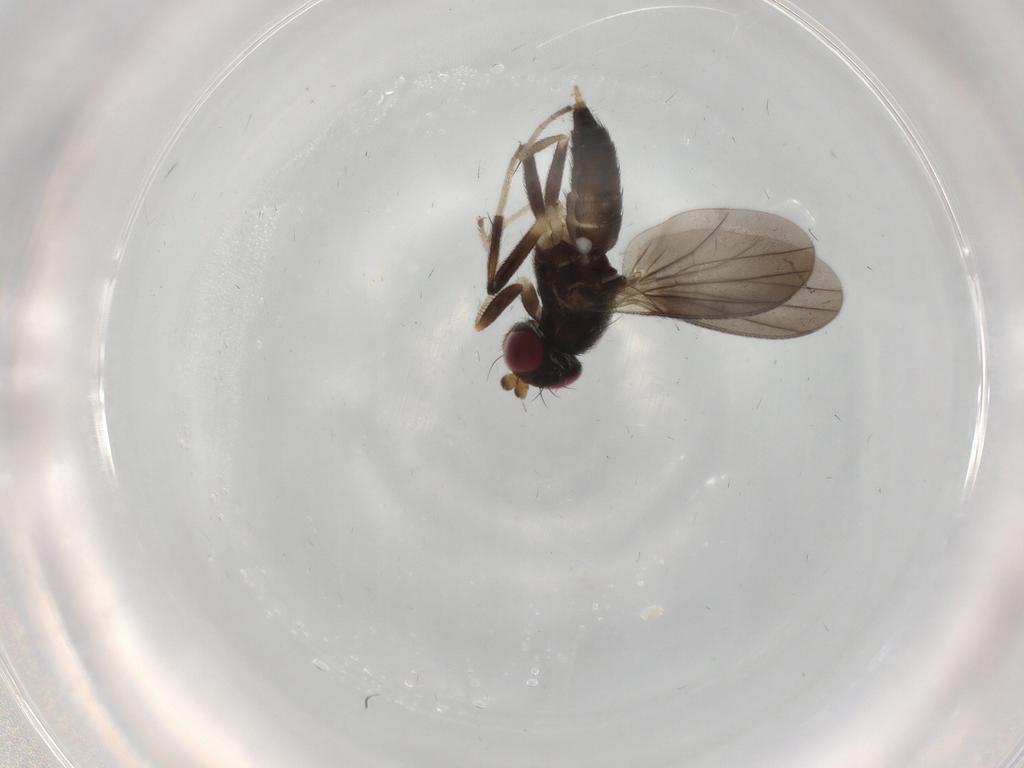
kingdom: Animalia
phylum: Arthropoda
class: Insecta
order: Diptera
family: Clusiidae
